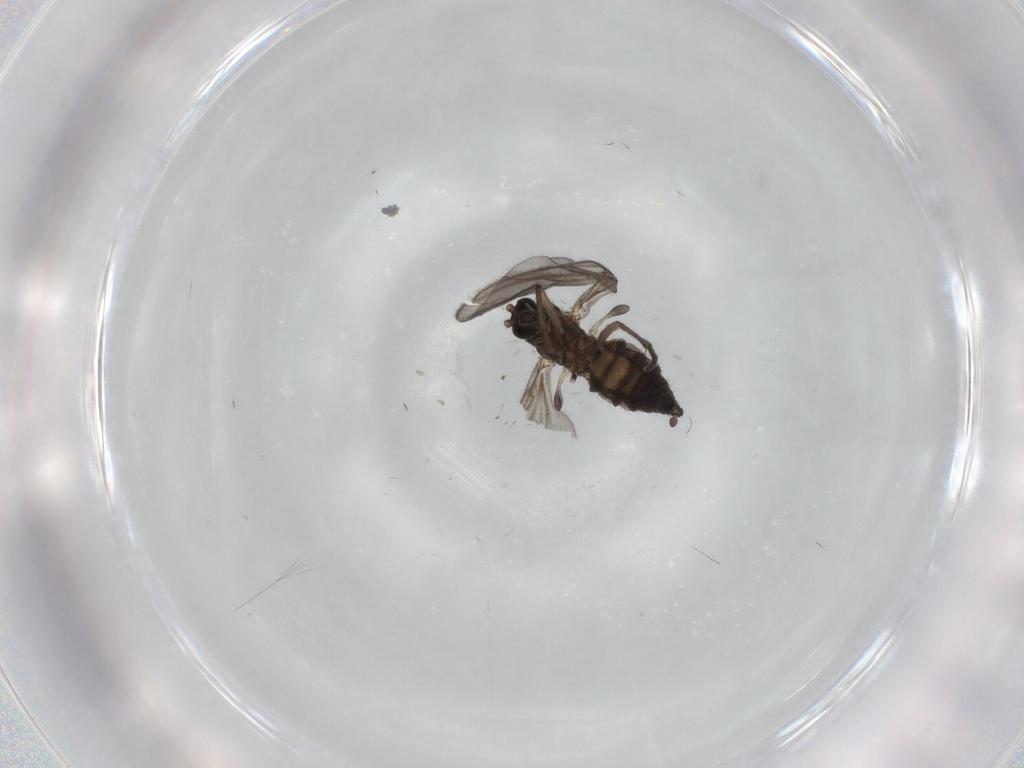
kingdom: Animalia
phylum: Arthropoda
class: Insecta
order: Diptera
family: Sciaridae
